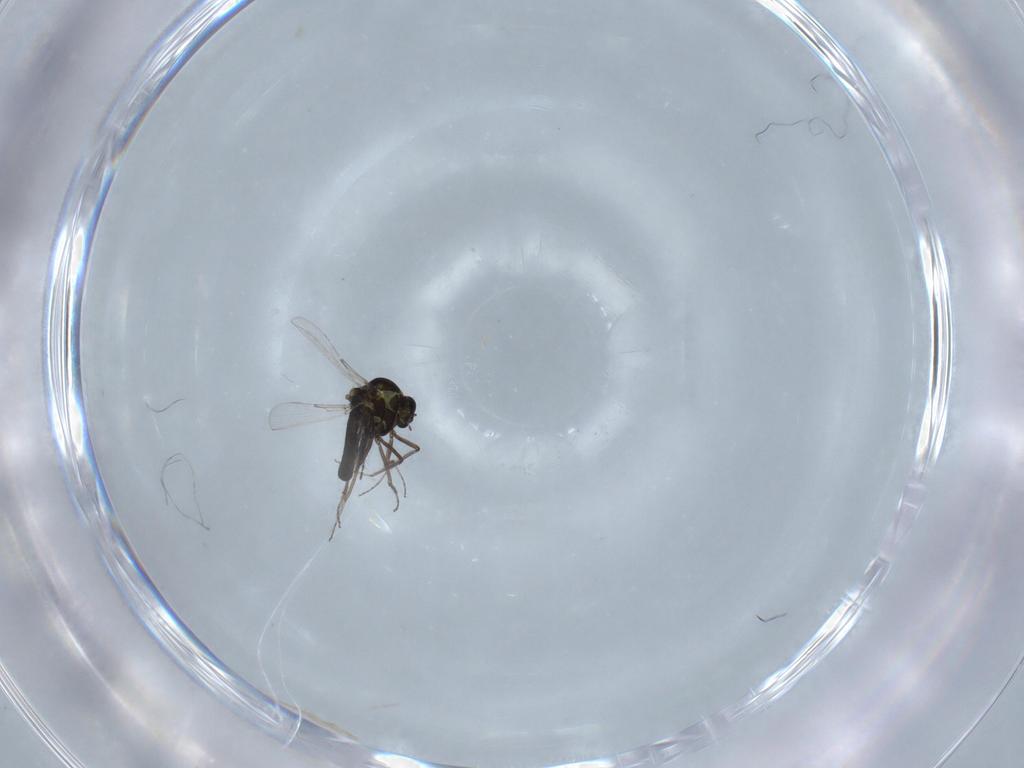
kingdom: Animalia
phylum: Arthropoda
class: Insecta
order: Diptera
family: Ceratopogonidae
